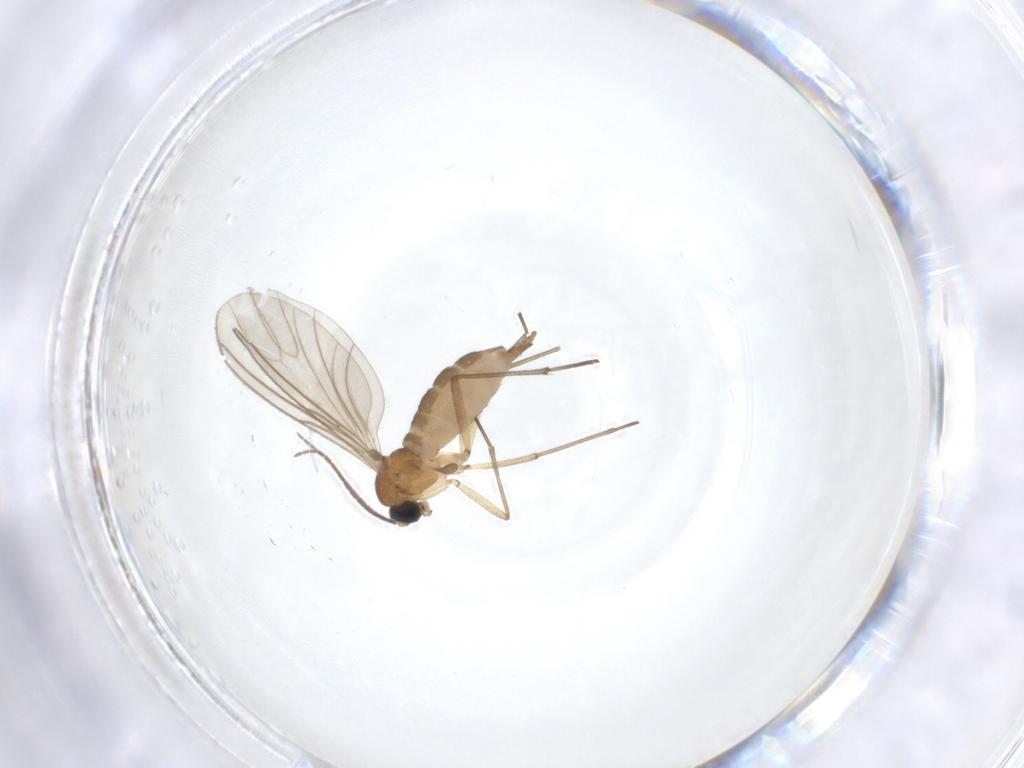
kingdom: Animalia
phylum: Arthropoda
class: Insecta
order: Diptera
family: Sciaridae
